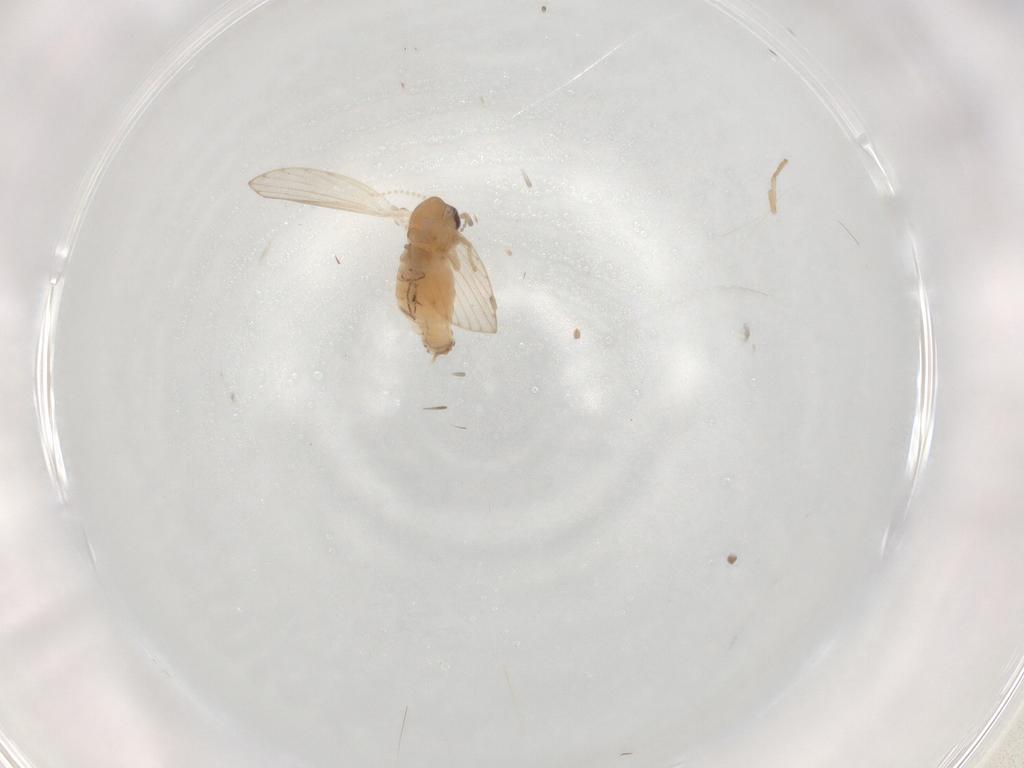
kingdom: Animalia
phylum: Arthropoda
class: Insecta
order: Diptera
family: Psychodidae
